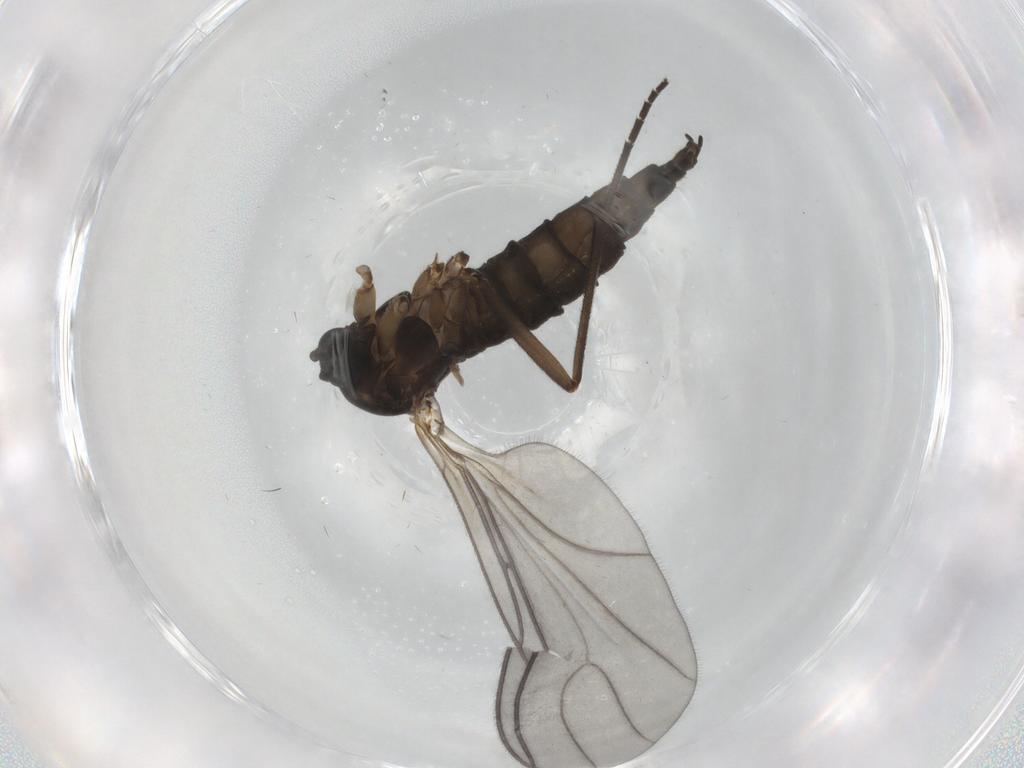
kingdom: Animalia
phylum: Arthropoda
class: Insecta
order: Diptera
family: Sciaridae
